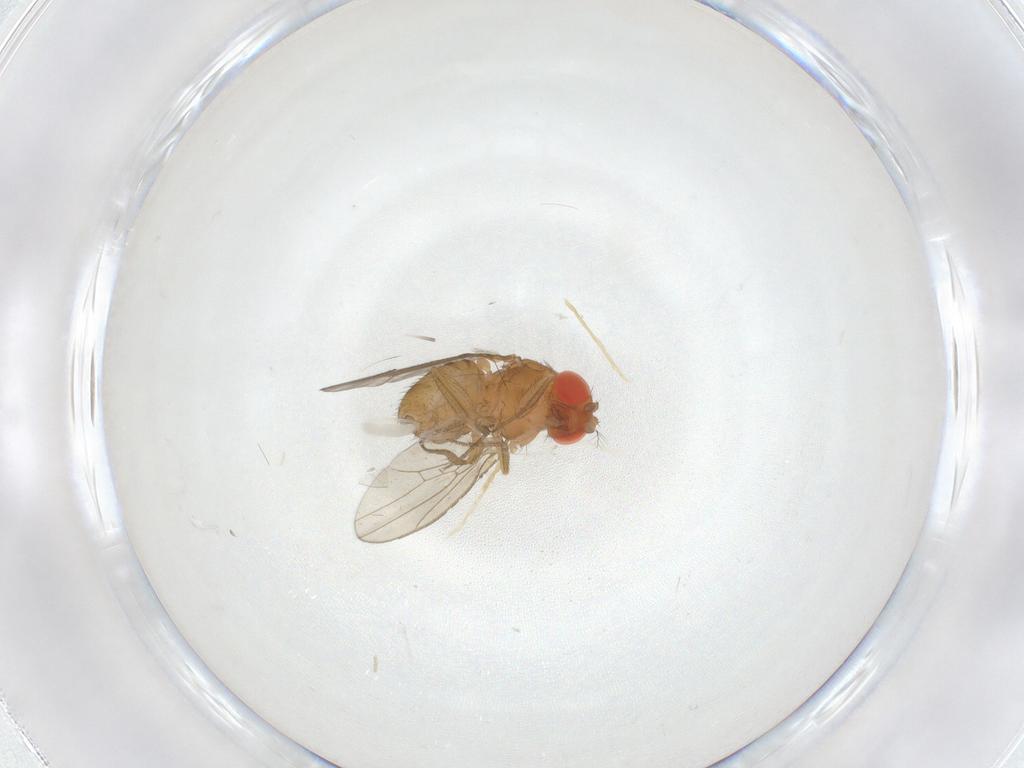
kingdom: Animalia
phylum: Arthropoda
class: Insecta
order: Diptera
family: Drosophilidae
